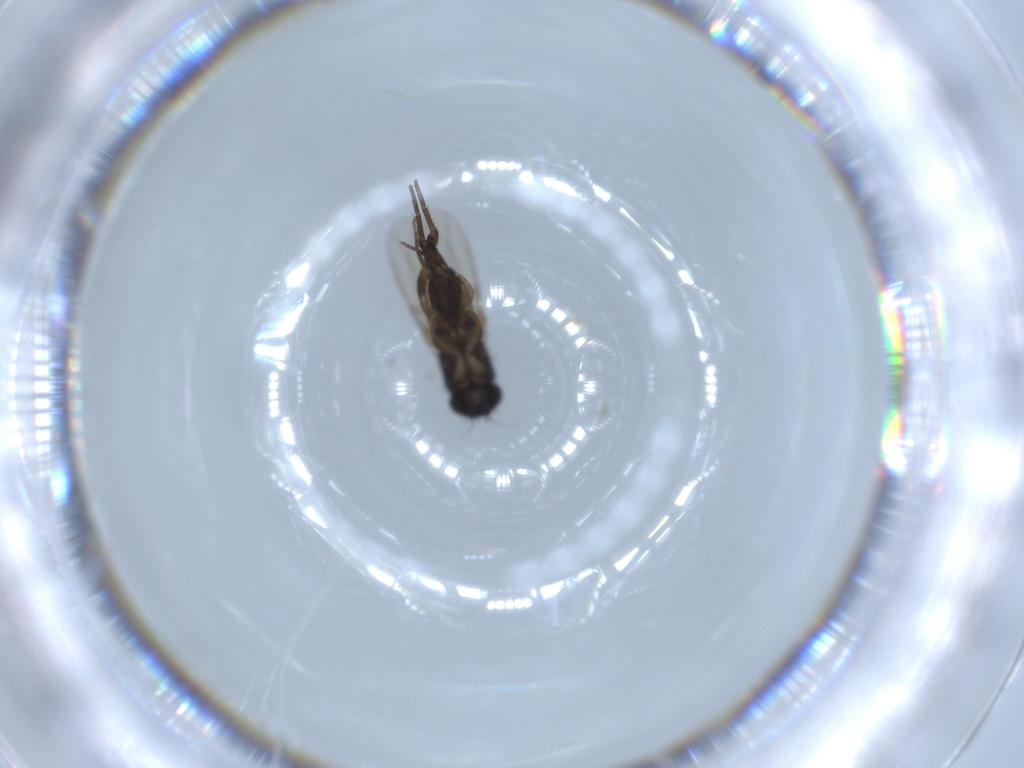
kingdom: Animalia
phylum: Arthropoda
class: Insecta
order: Diptera
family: Phoridae
